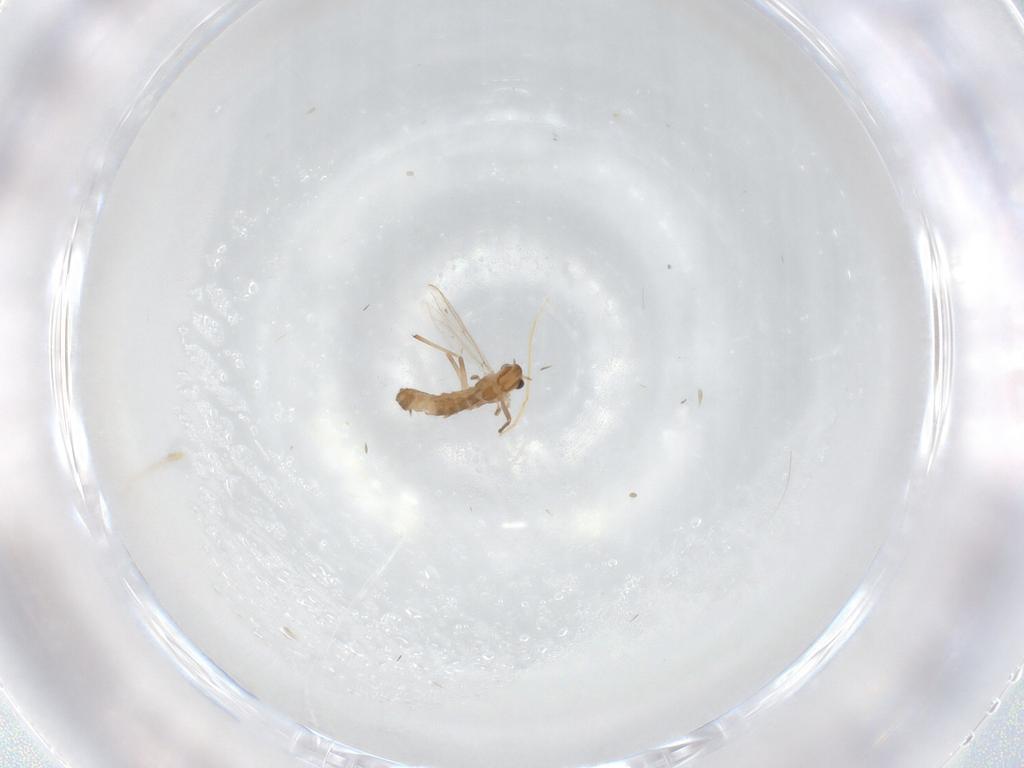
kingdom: Animalia
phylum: Arthropoda
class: Insecta
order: Diptera
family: Chironomidae
